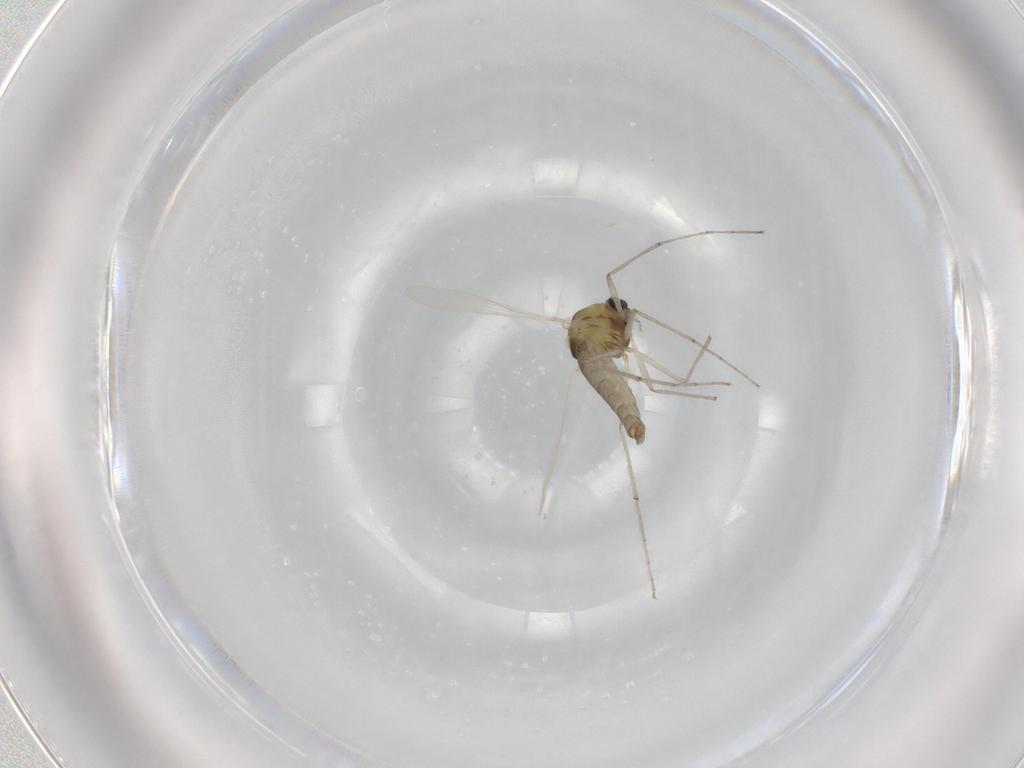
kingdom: Animalia
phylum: Arthropoda
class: Insecta
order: Diptera
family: Chironomidae
